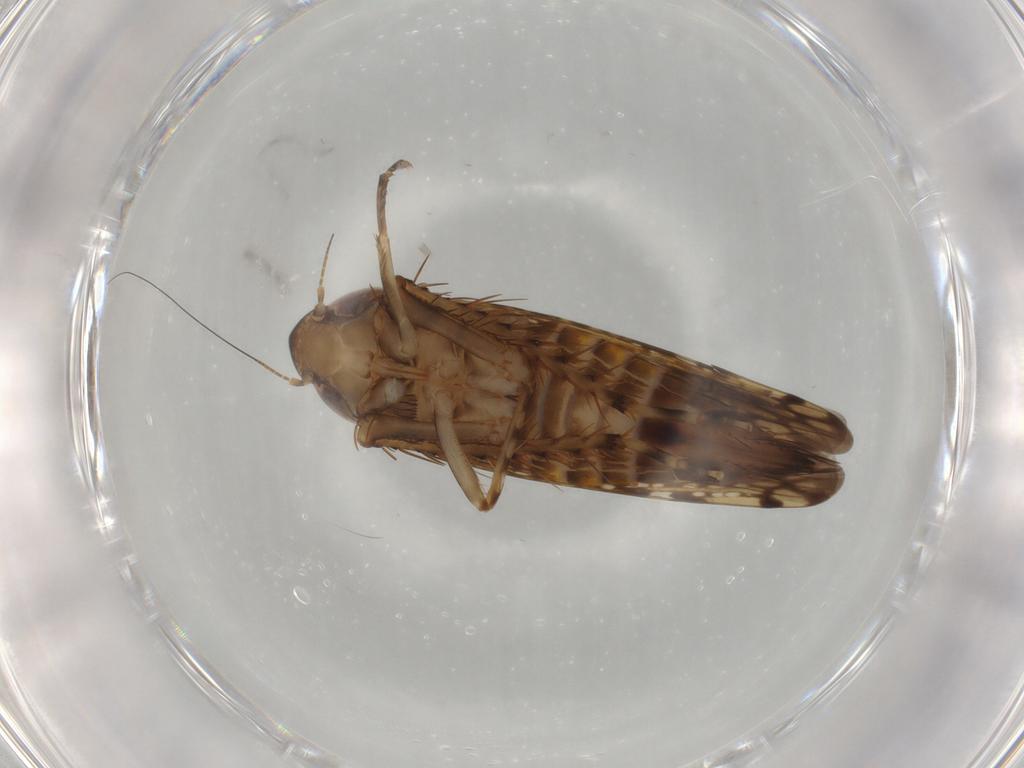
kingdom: Animalia
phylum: Arthropoda
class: Insecta
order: Hemiptera
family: Cicadellidae
